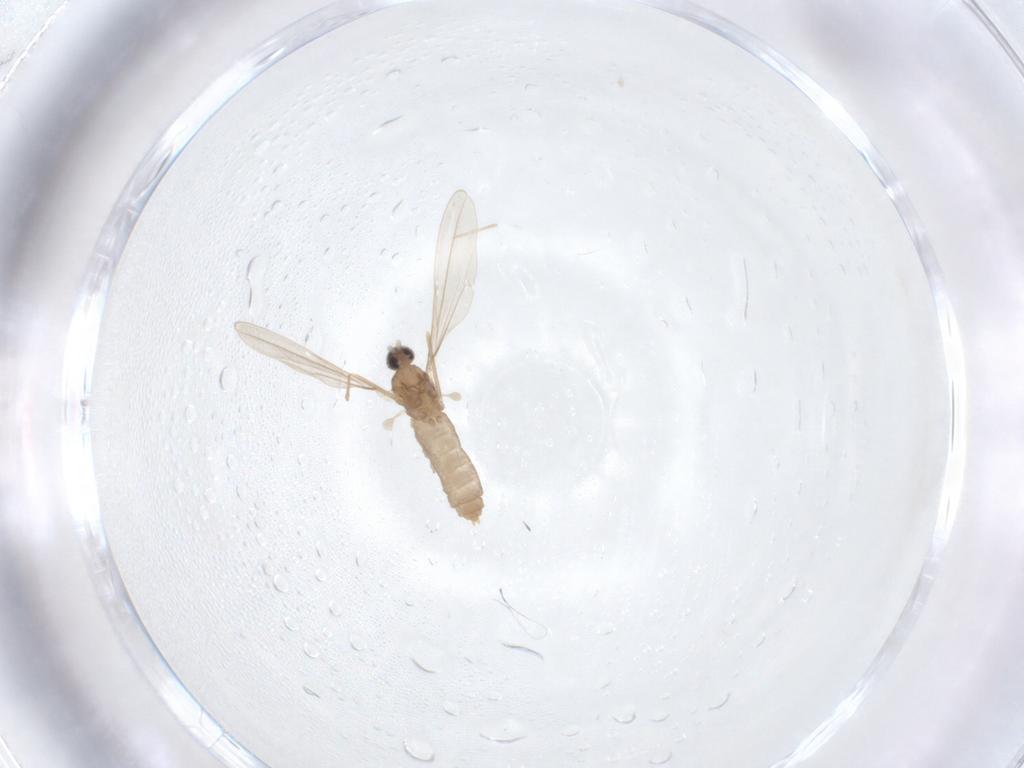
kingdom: Animalia
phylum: Arthropoda
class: Insecta
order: Diptera
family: Cecidomyiidae
